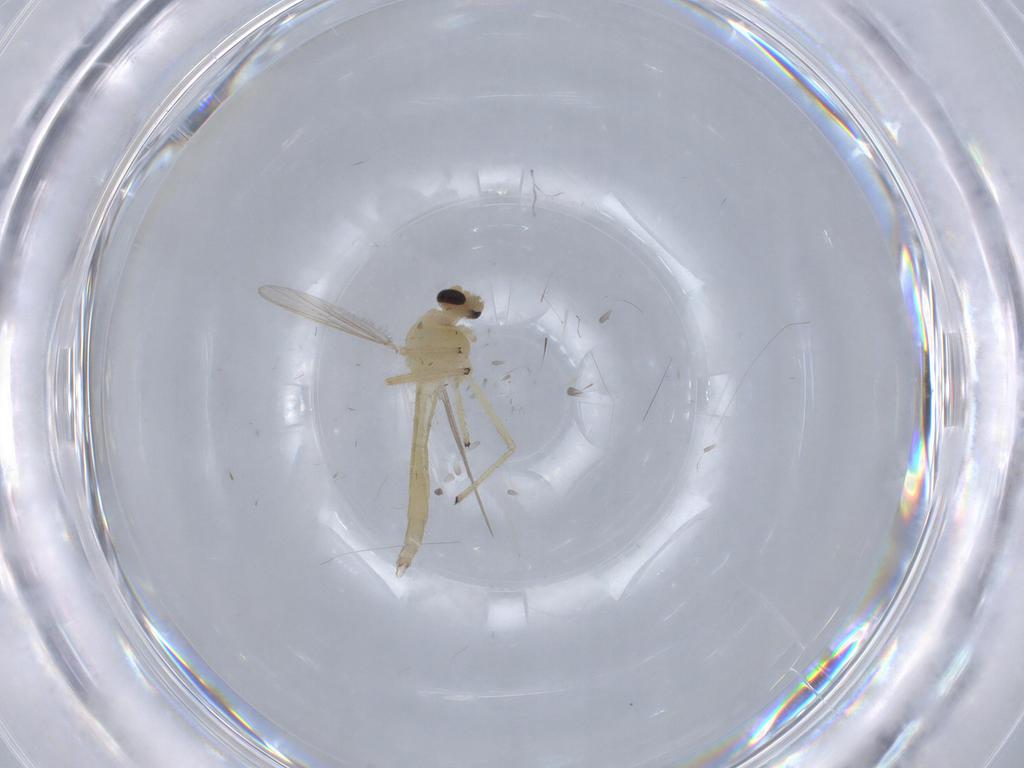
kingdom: Animalia
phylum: Arthropoda
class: Insecta
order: Diptera
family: Chironomidae
